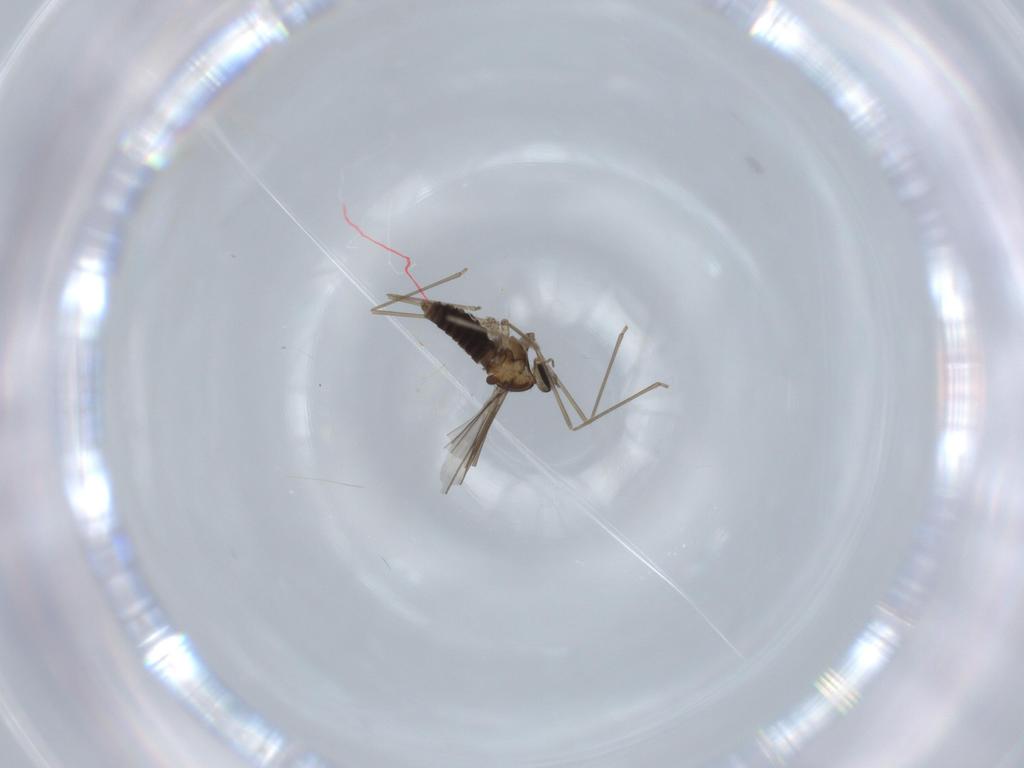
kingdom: Animalia
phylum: Arthropoda
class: Insecta
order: Diptera
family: Cecidomyiidae
